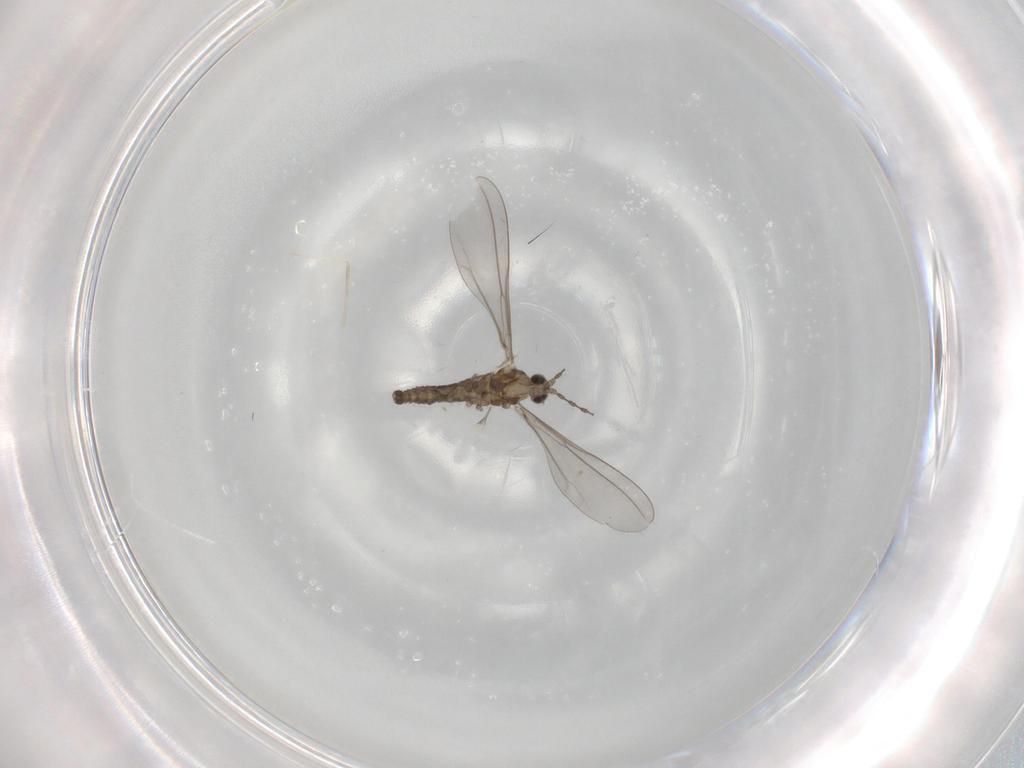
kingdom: Animalia
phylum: Arthropoda
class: Insecta
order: Diptera
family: Cecidomyiidae
